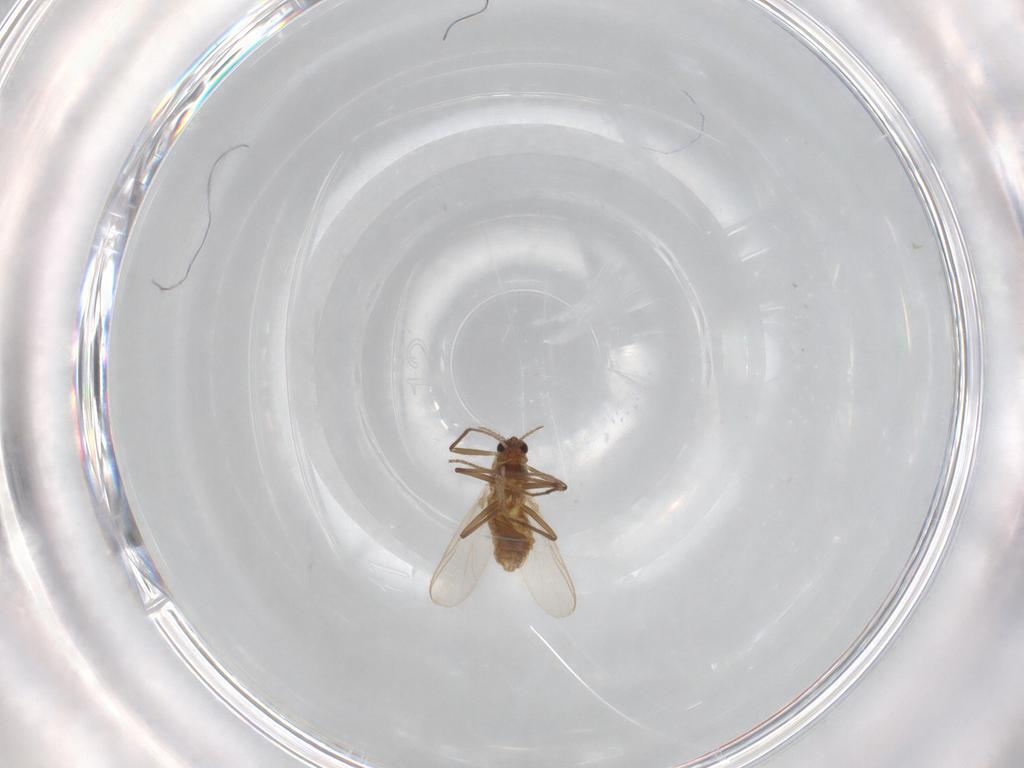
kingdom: Animalia
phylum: Arthropoda
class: Insecta
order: Diptera
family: Chironomidae
